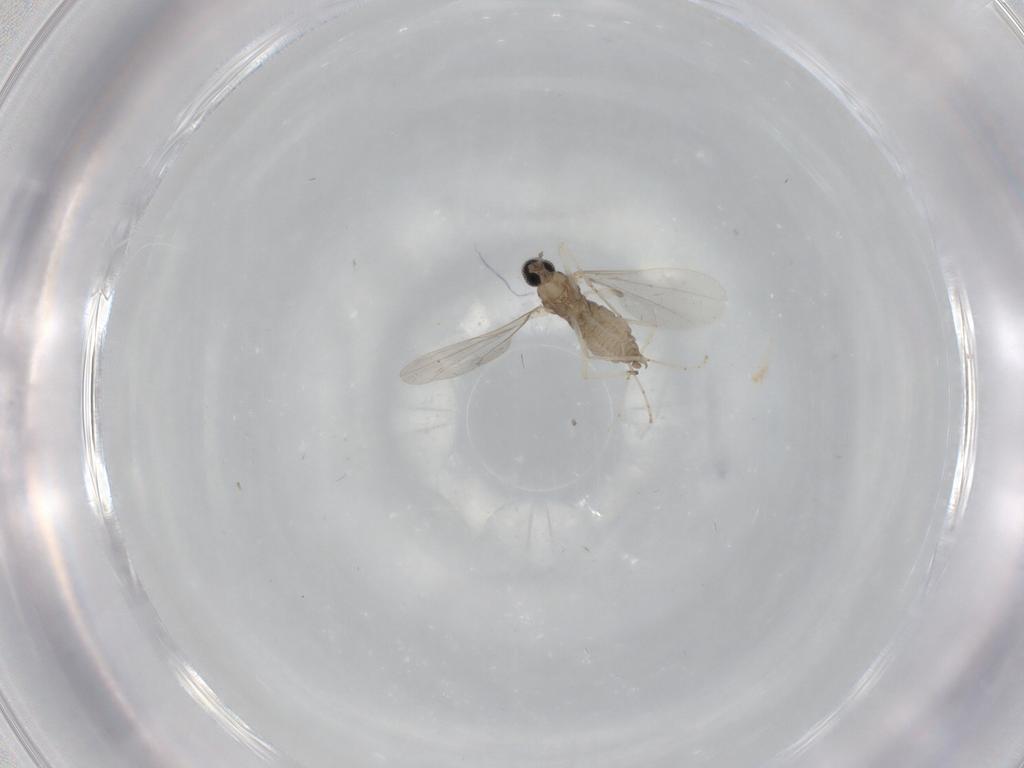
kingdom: Animalia
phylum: Arthropoda
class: Insecta
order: Diptera
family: Cecidomyiidae
